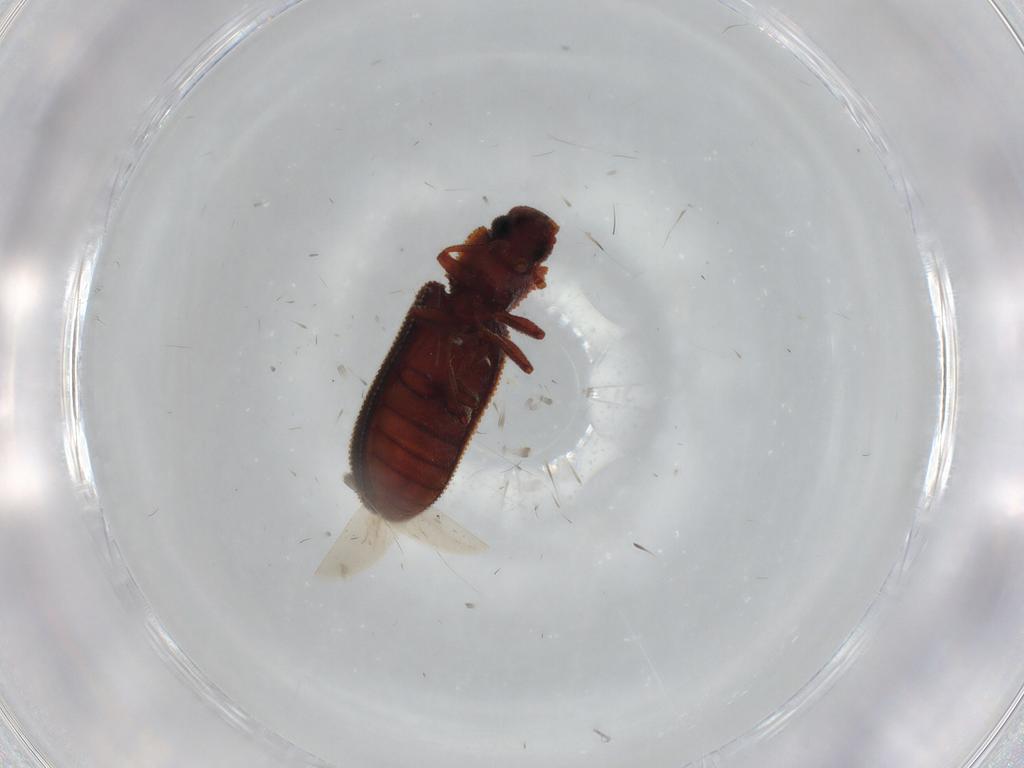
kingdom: Animalia
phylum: Arthropoda
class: Insecta
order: Coleoptera
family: Zopheridae
